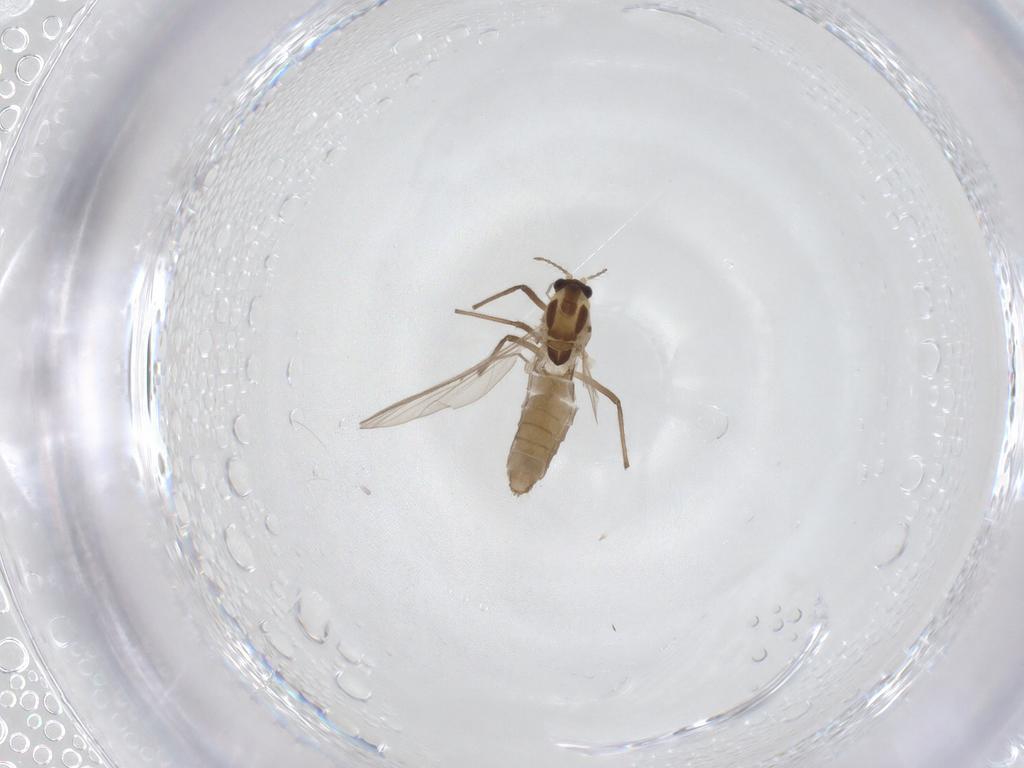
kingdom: Animalia
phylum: Arthropoda
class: Insecta
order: Diptera
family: Chironomidae
